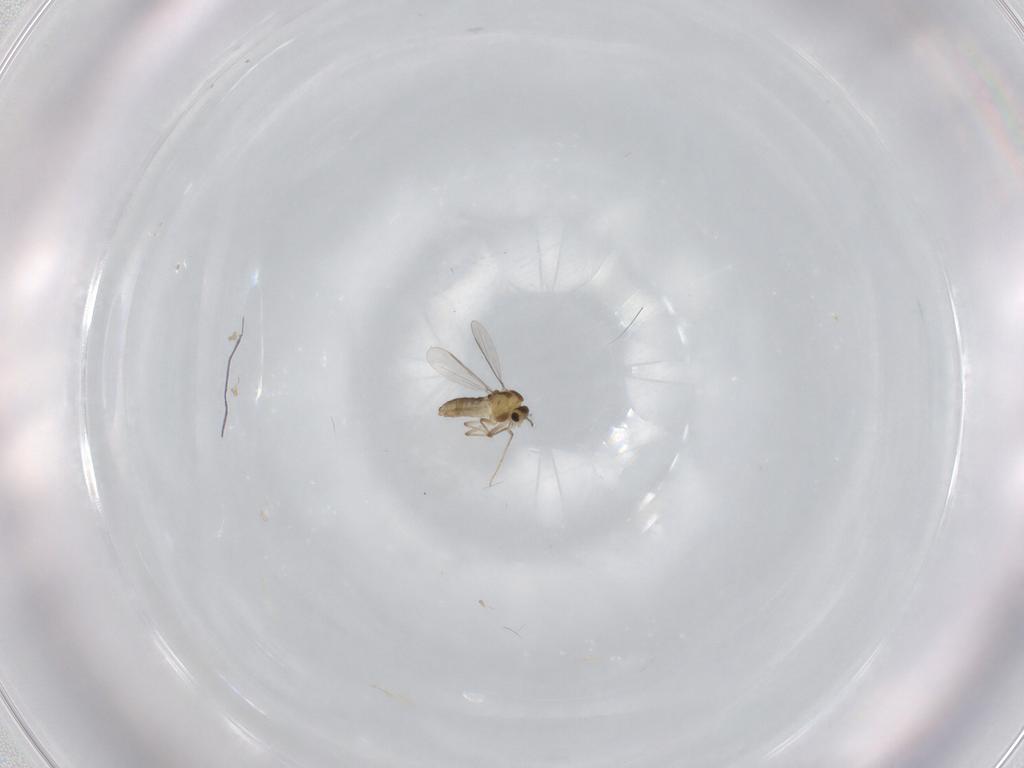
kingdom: Animalia
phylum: Arthropoda
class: Insecta
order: Diptera
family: Chironomidae
